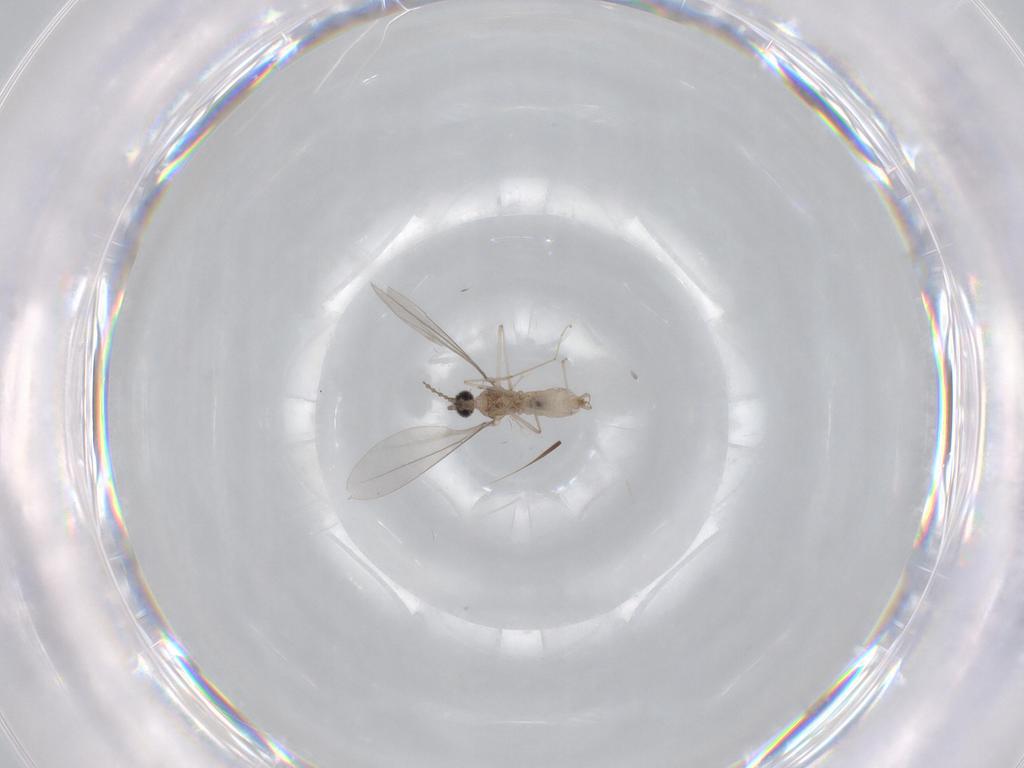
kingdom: Animalia
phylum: Arthropoda
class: Insecta
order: Diptera
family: Cecidomyiidae
